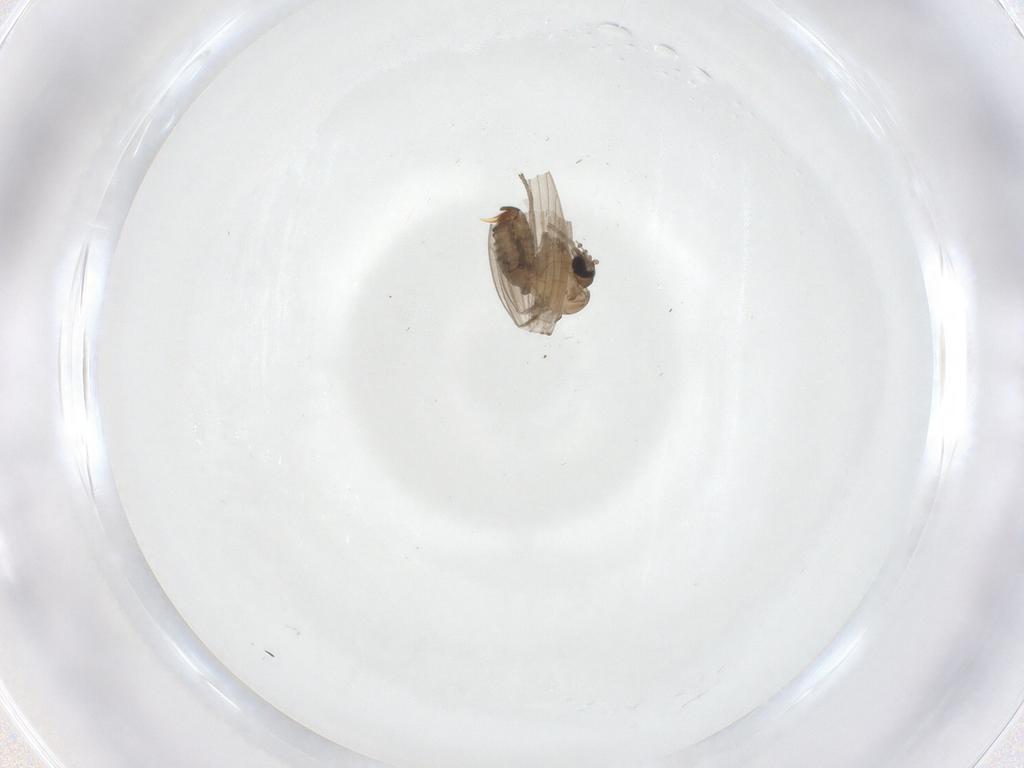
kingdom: Animalia
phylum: Arthropoda
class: Insecta
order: Diptera
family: Psychodidae
